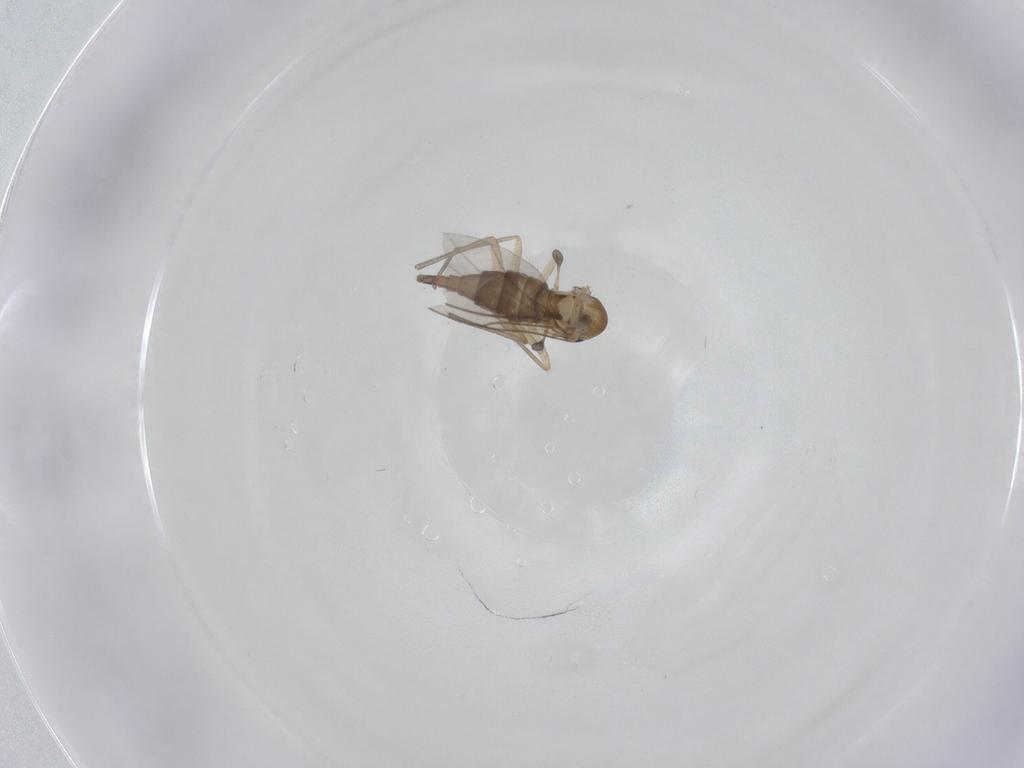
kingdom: Animalia
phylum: Arthropoda
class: Insecta
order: Diptera
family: Sciaridae
